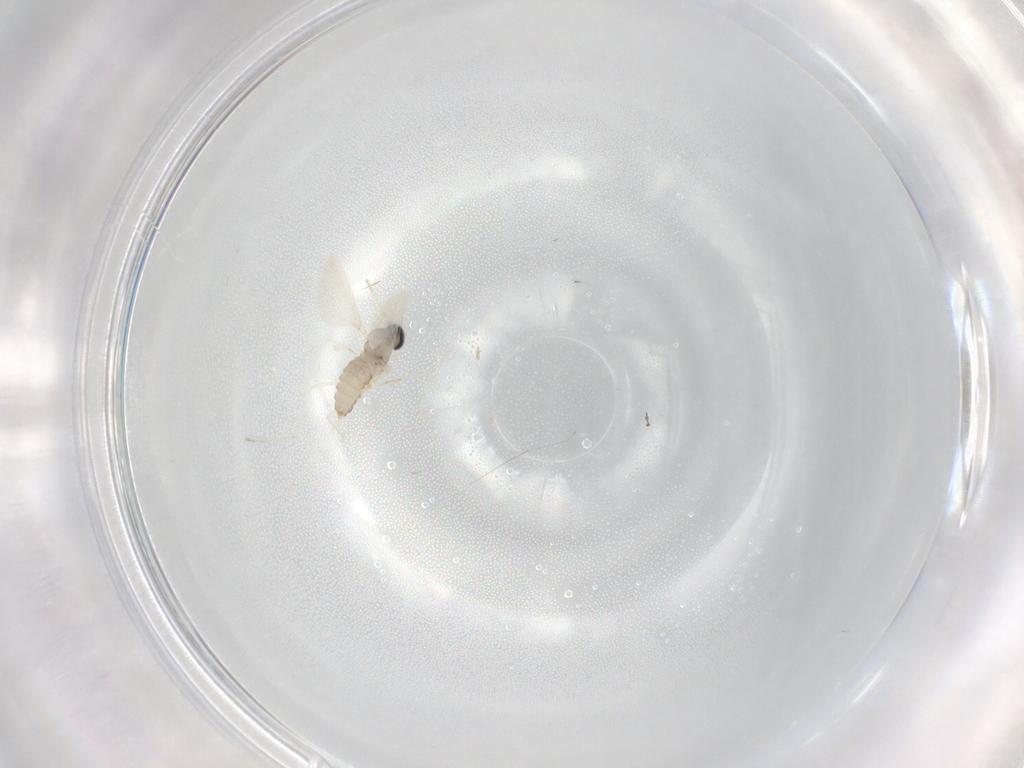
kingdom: Animalia
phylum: Arthropoda
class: Insecta
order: Diptera
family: Cecidomyiidae
